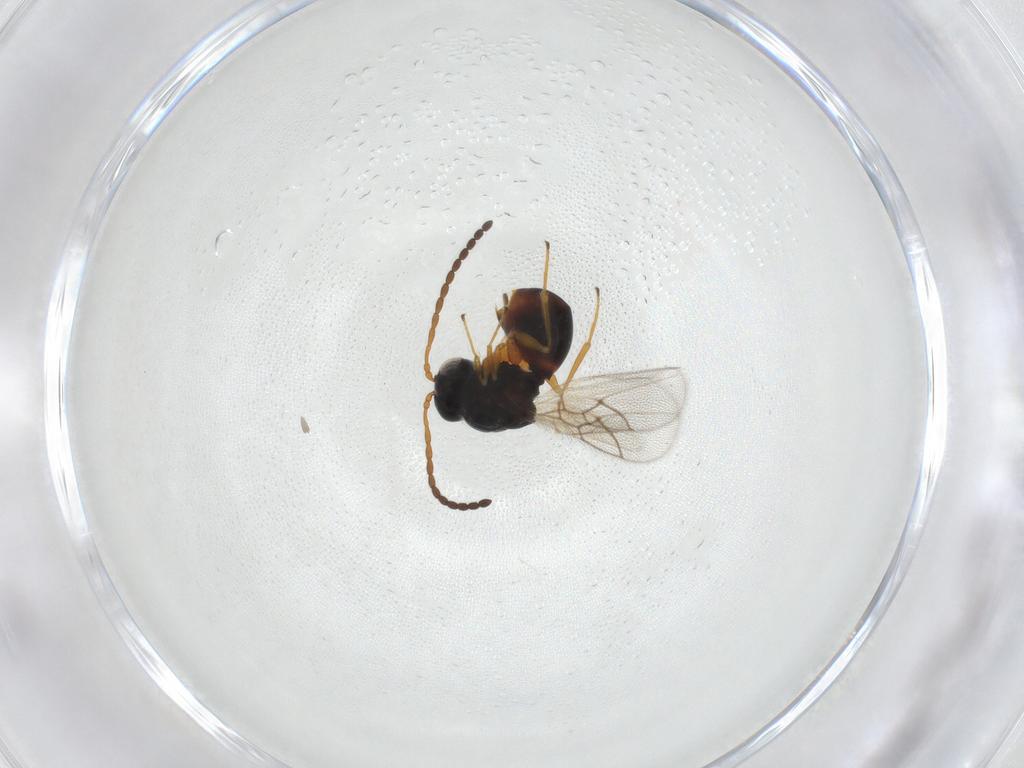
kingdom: Animalia
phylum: Arthropoda
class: Insecta
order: Hymenoptera
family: Figitidae
